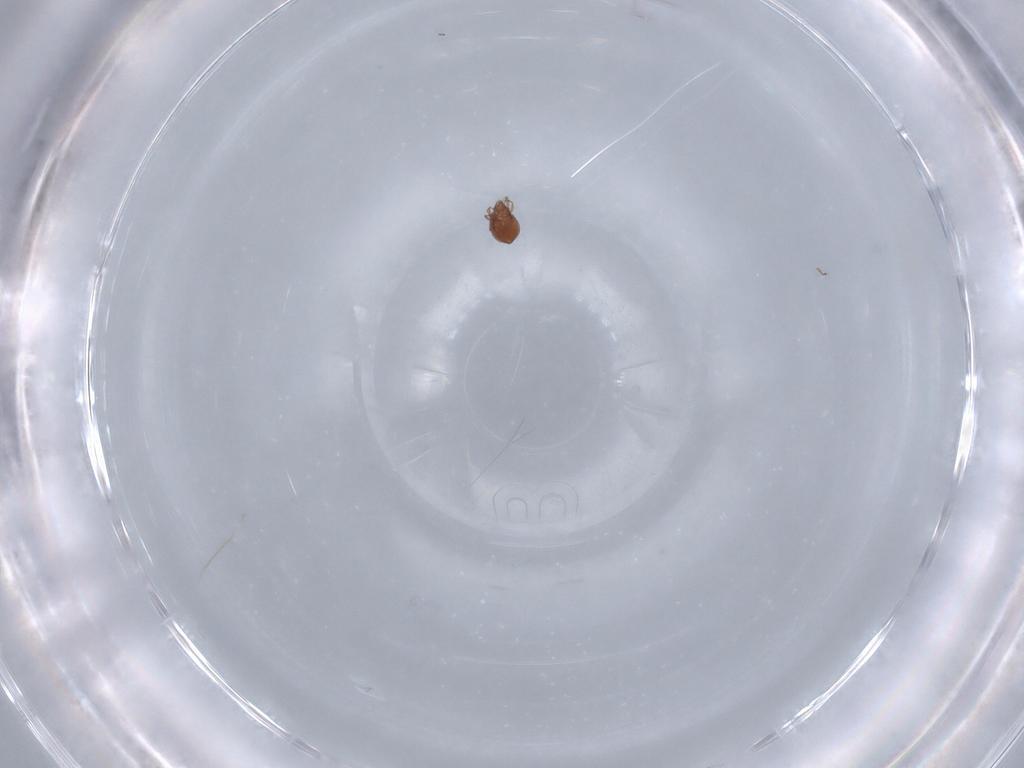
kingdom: Animalia
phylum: Arthropoda
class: Arachnida
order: Sarcoptiformes
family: Oribatulidae
